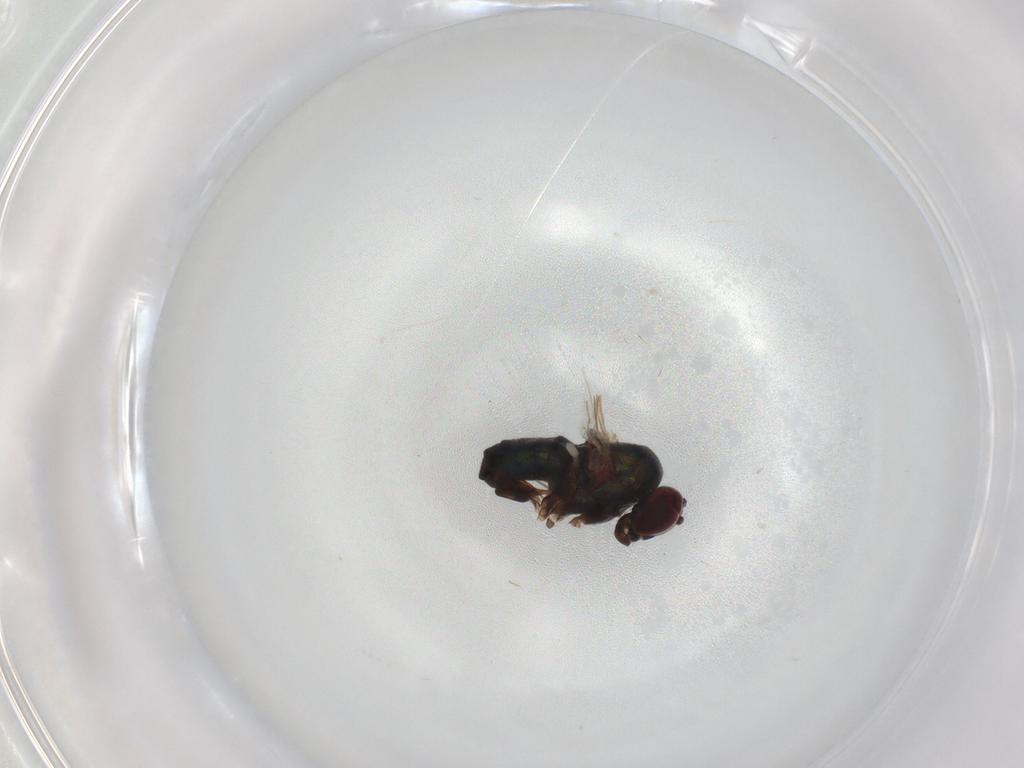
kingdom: Animalia
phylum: Arthropoda
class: Insecta
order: Diptera
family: Dolichopodidae
